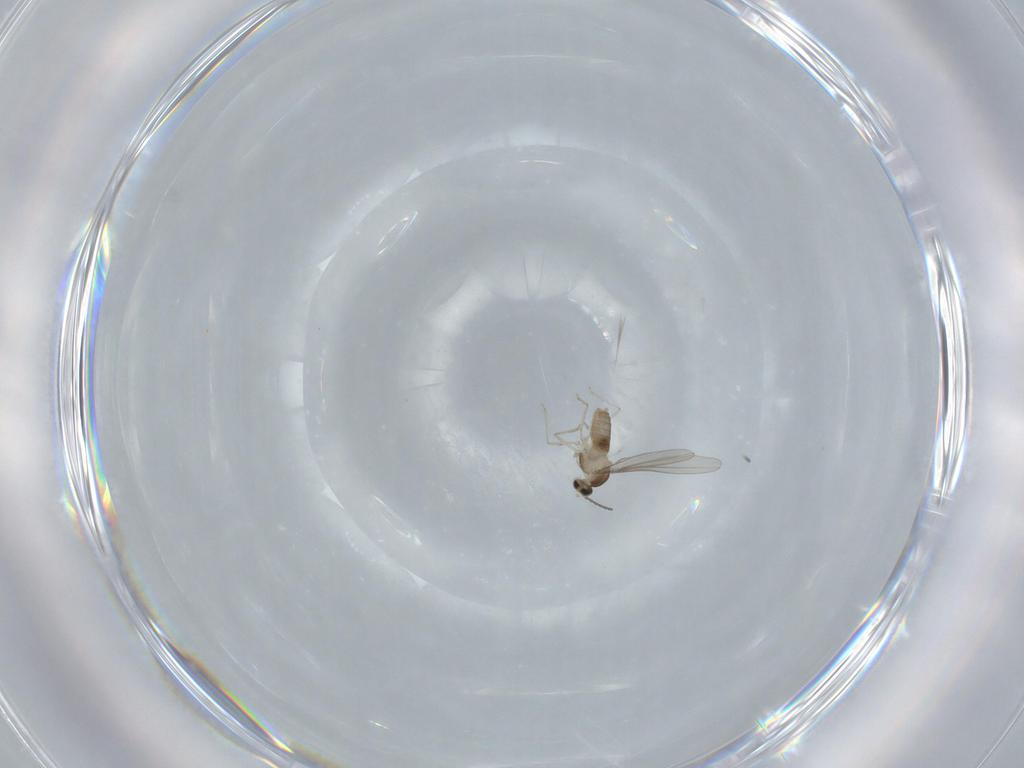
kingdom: Animalia
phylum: Arthropoda
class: Insecta
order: Diptera
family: Cecidomyiidae
